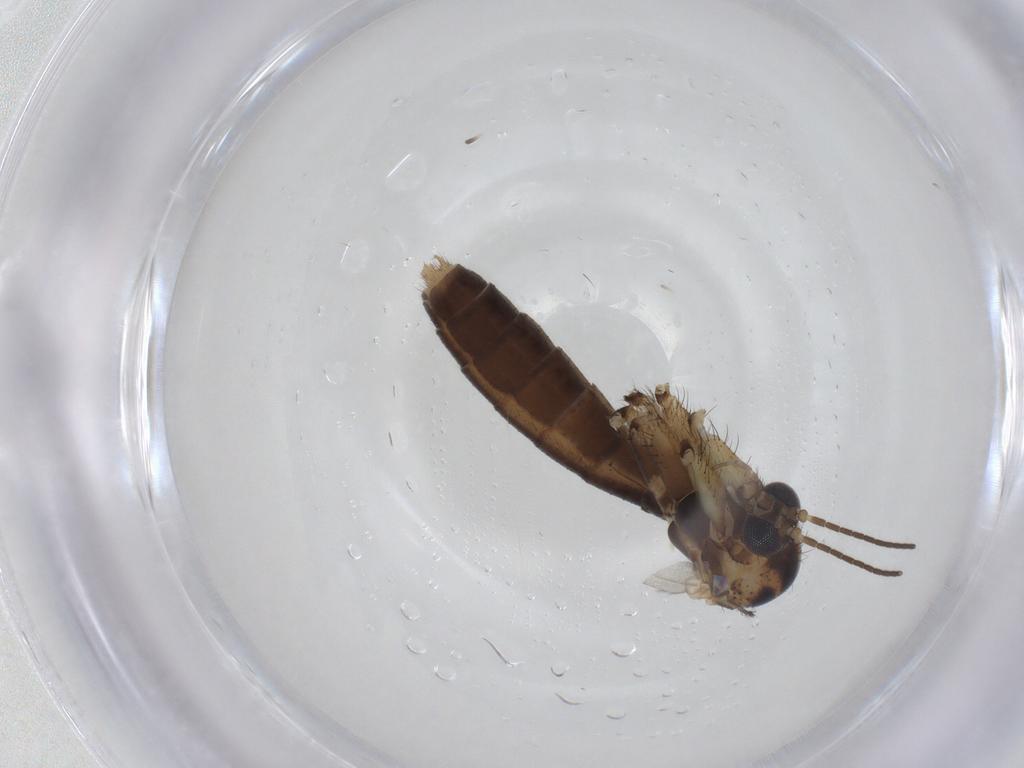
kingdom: Animalia
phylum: Arthropoda
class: Insecta
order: Diptera
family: Mycetophilidae
